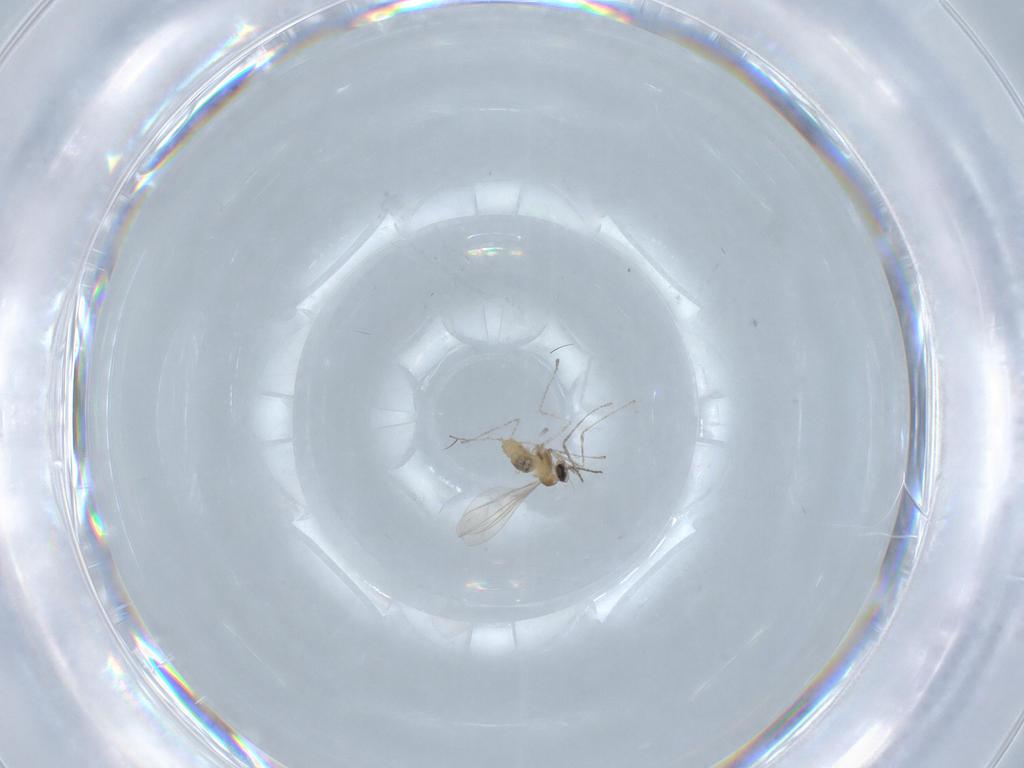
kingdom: Animalia
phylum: Arthropoda
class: Insecta
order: Diptera
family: Cecidomyiidae
